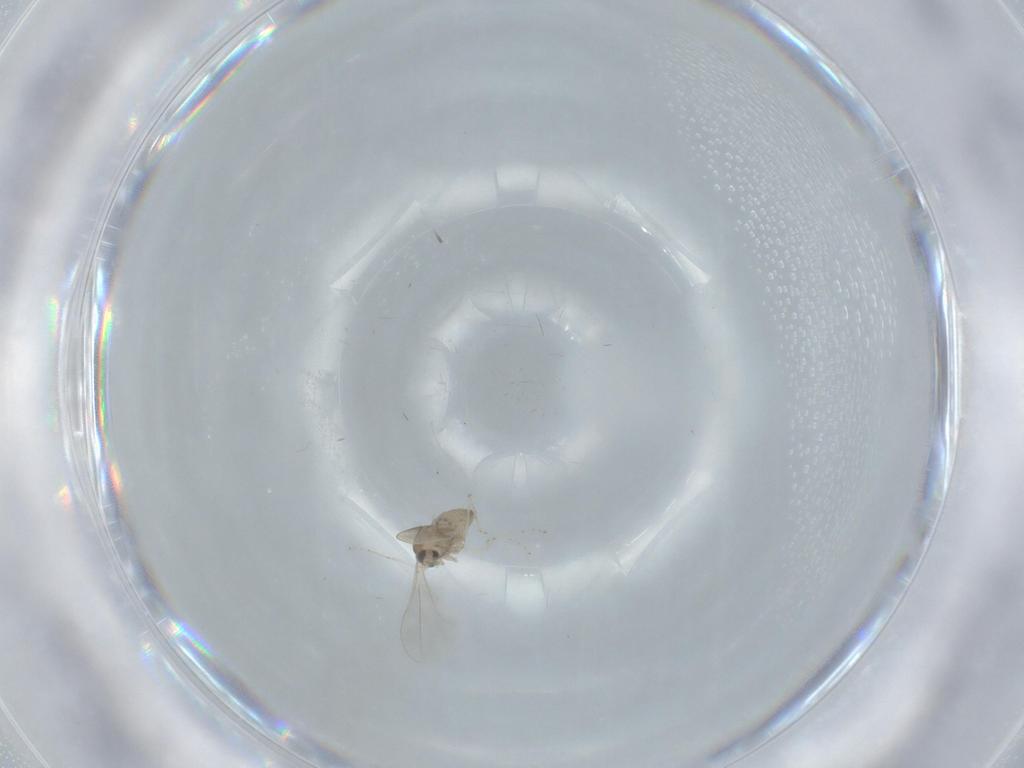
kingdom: Animalia
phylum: Arthropoda
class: Insecta
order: Diptera
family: Cecidomyiidae
